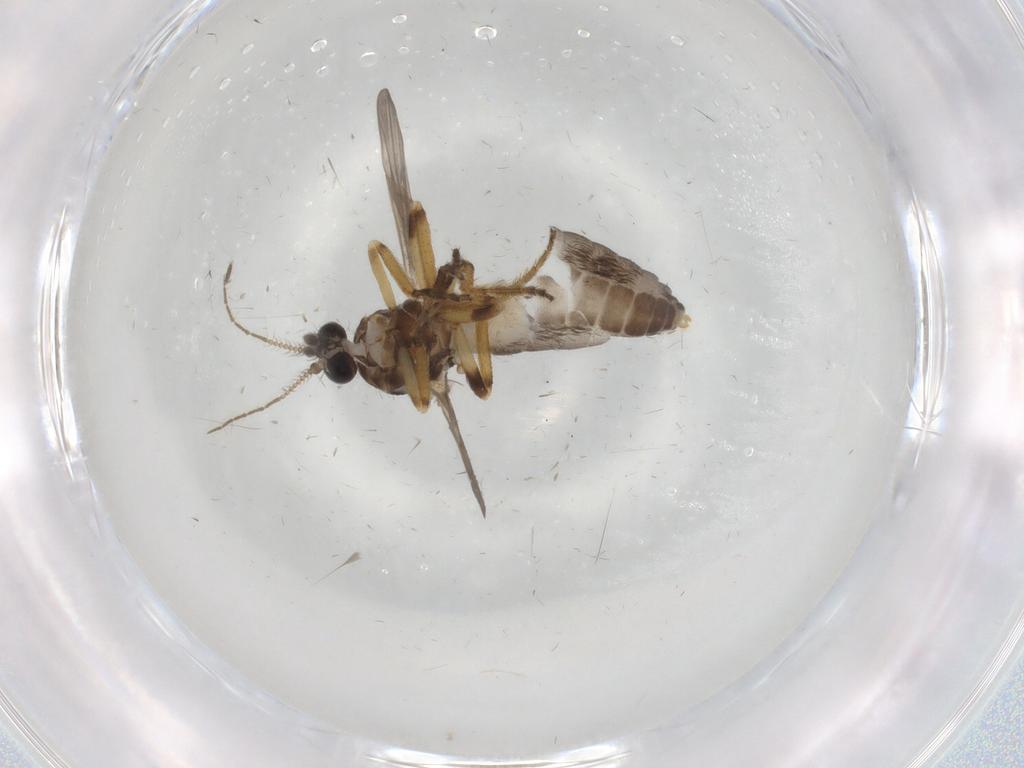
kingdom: Animalia
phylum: Arthropoda
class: Insecta
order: Diptera
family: Ceratopogonidae
